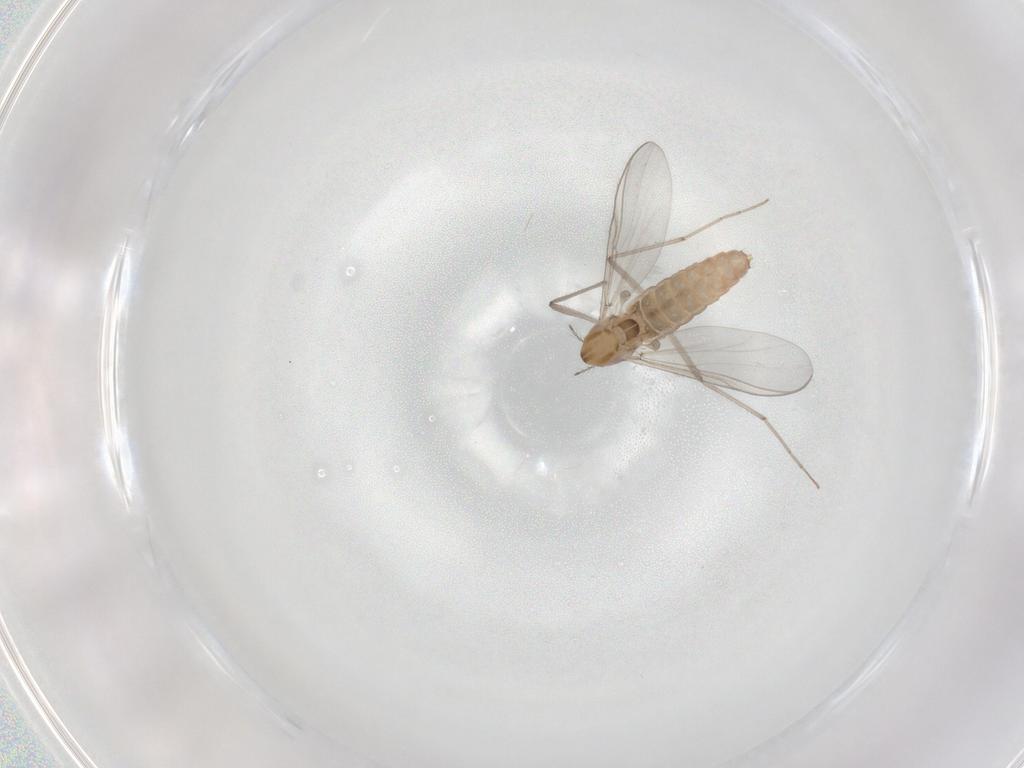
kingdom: Animalia
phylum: Arthropoda
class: Insecta
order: Diptera
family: Chironomidae
